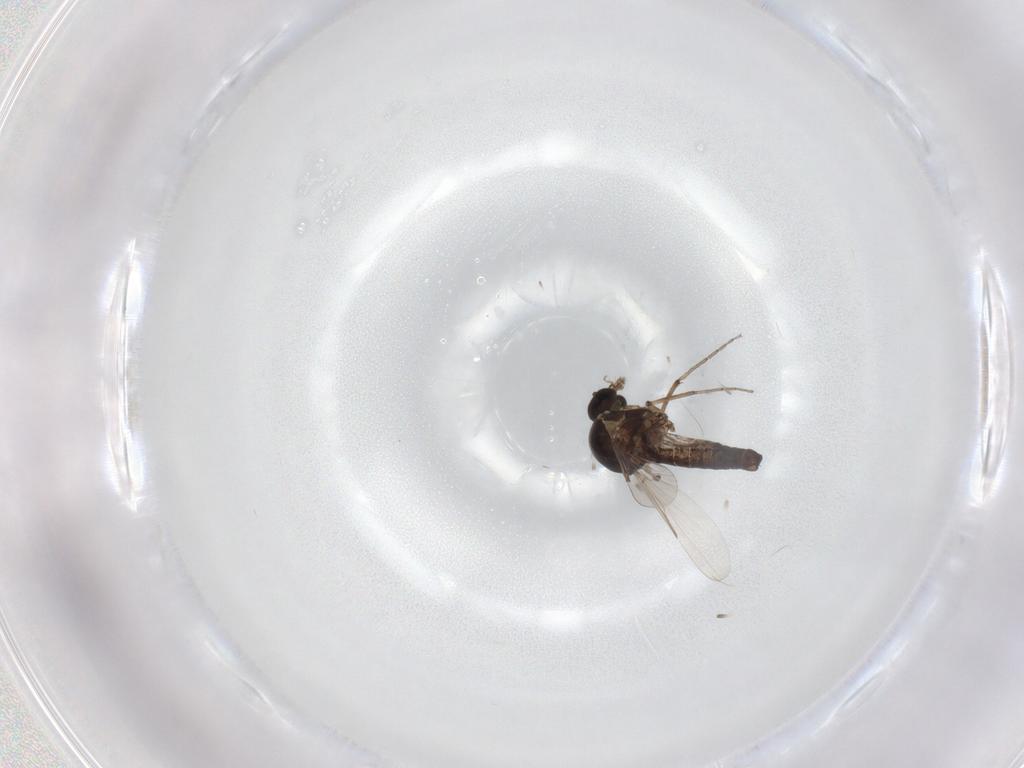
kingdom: Animalia
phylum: Arthropoda
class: Insecta
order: Diptera
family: Ceratopogonidae
